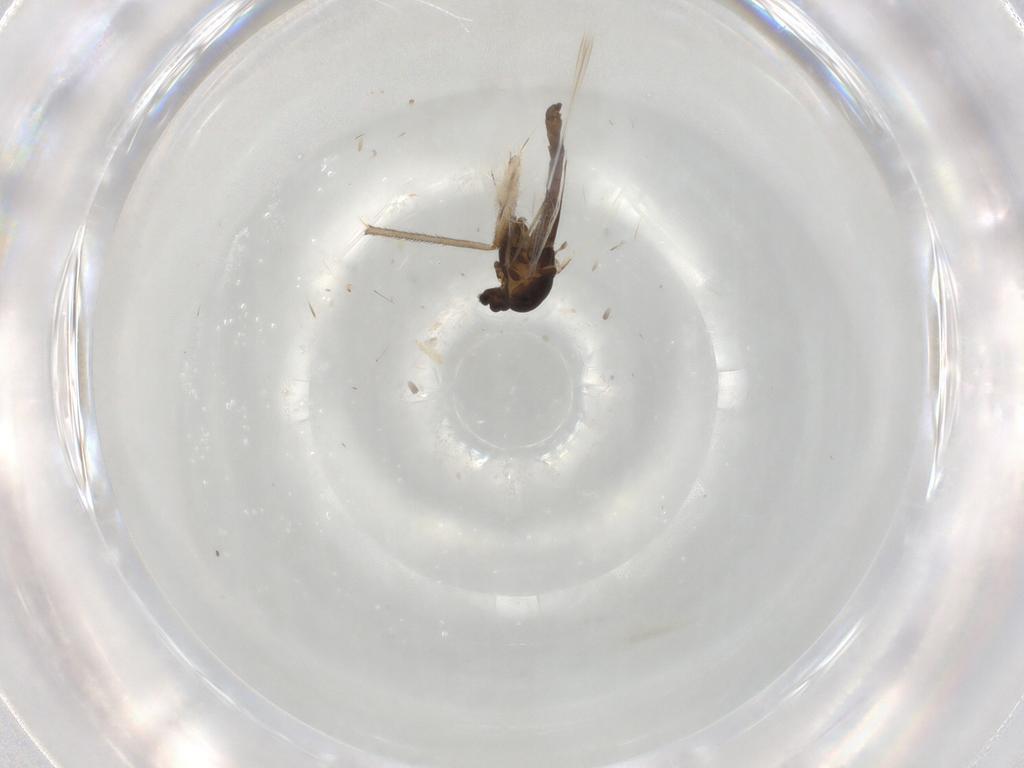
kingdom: Animalia
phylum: Arthropoda
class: Insecta
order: Diptera
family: Chironomidae
